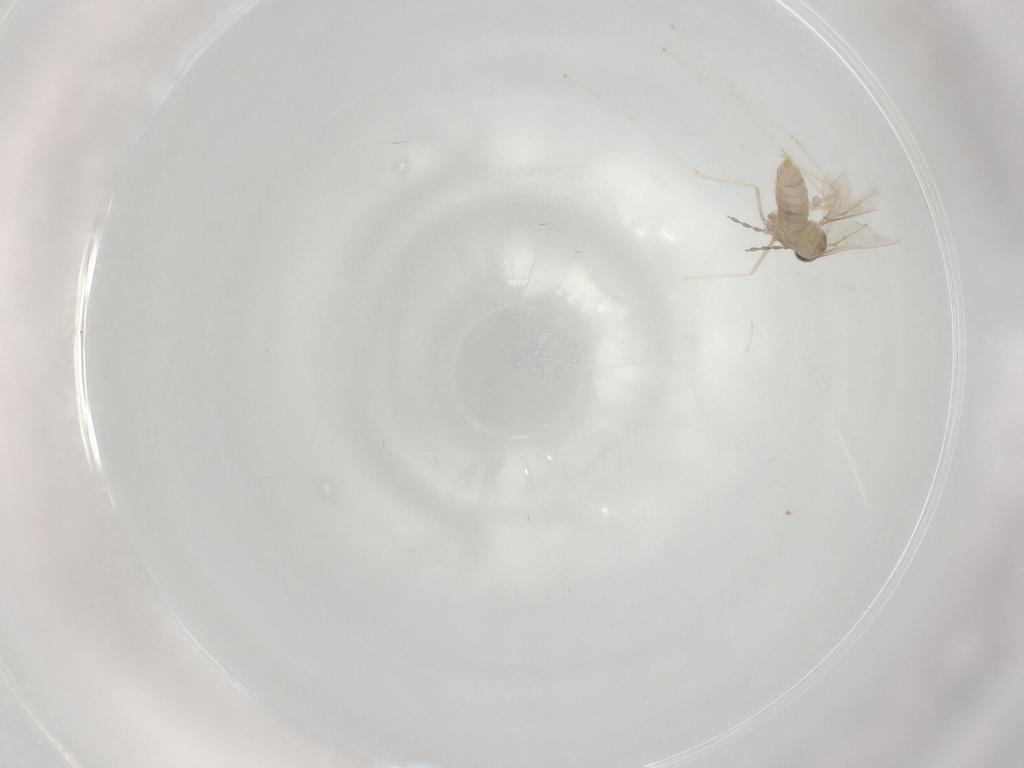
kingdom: Animalia
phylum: Arthropoda
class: Insecta
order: Diptera
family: Cecidomyiidae
